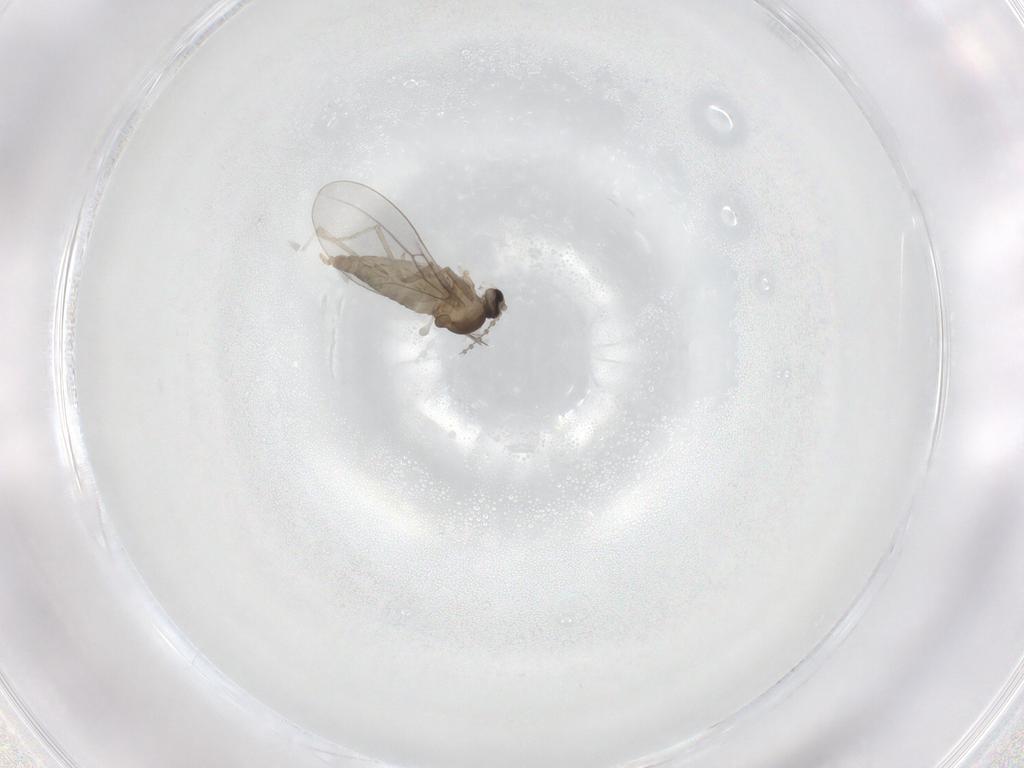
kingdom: Animalia
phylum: Arthropoda
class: Insecta
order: Diptera
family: Cecidomyiidae
